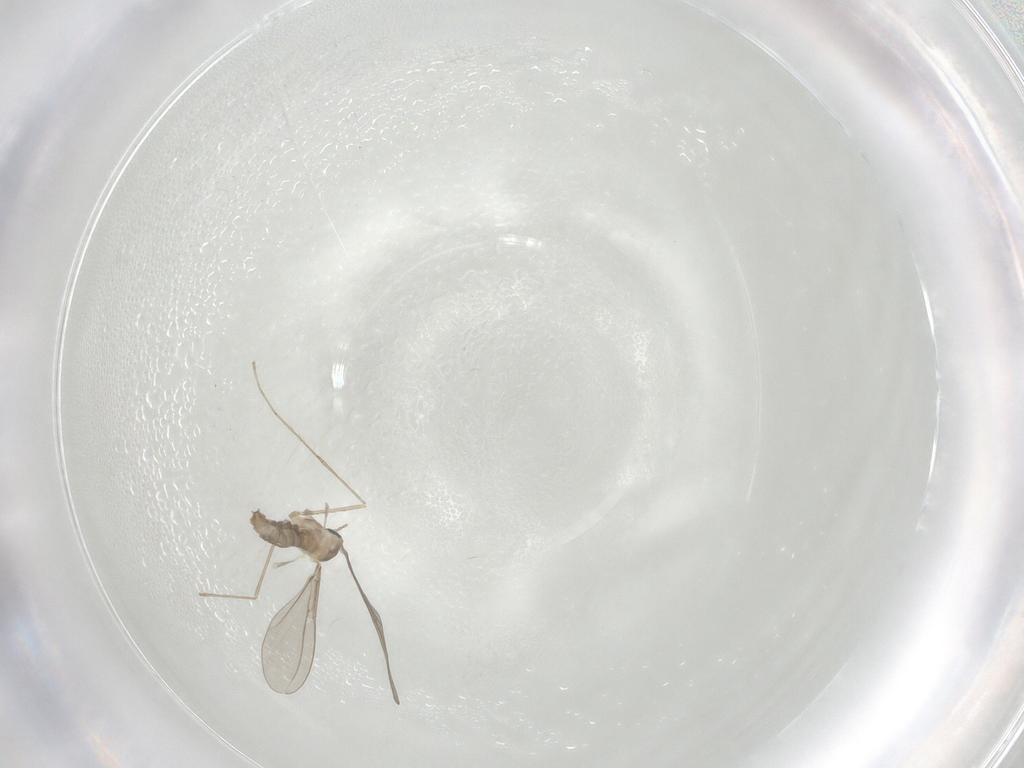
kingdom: Animalia
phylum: Arthropoda
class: Insecta
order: Diptera
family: Cecidomyiidae
